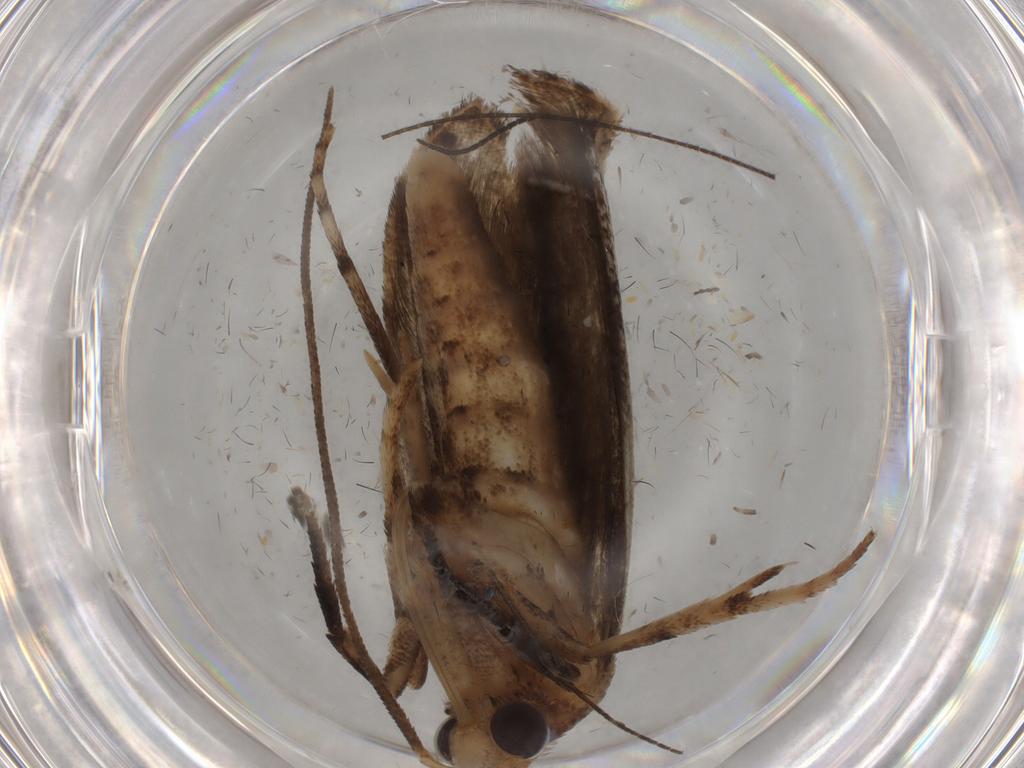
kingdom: Animalia
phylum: Arthropoda
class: Insecta
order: Lepidoptera
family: Yponomeutidae
